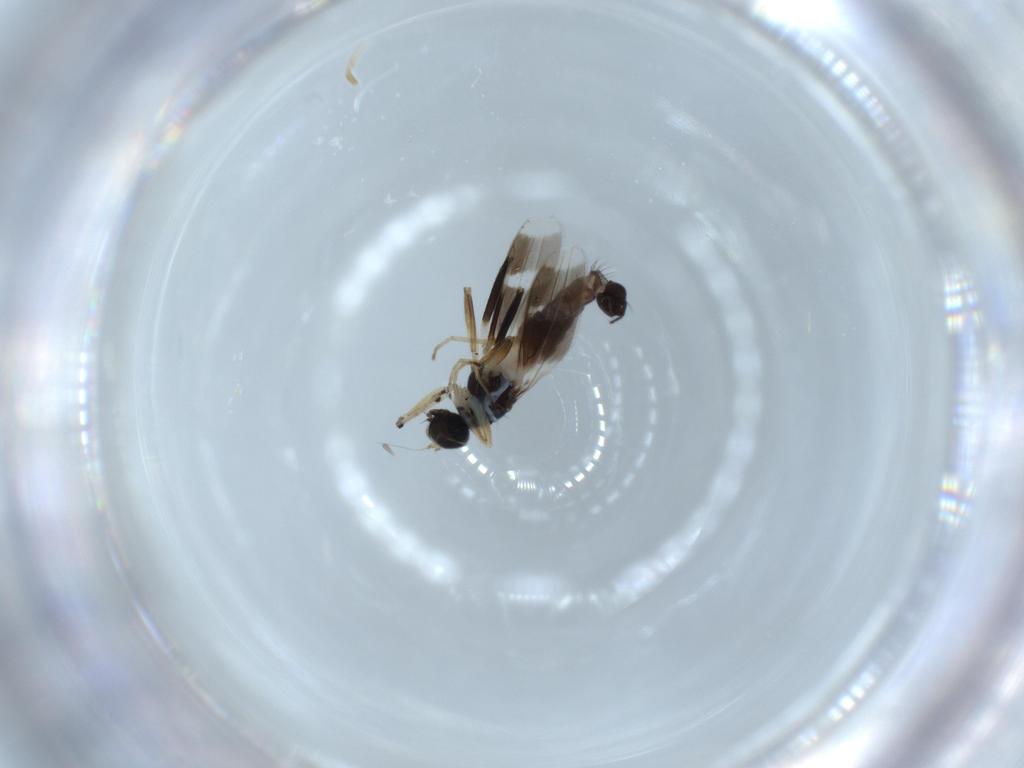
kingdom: Animalia
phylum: Arthropoda
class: Insecta
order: Diptera
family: Hybotidae
